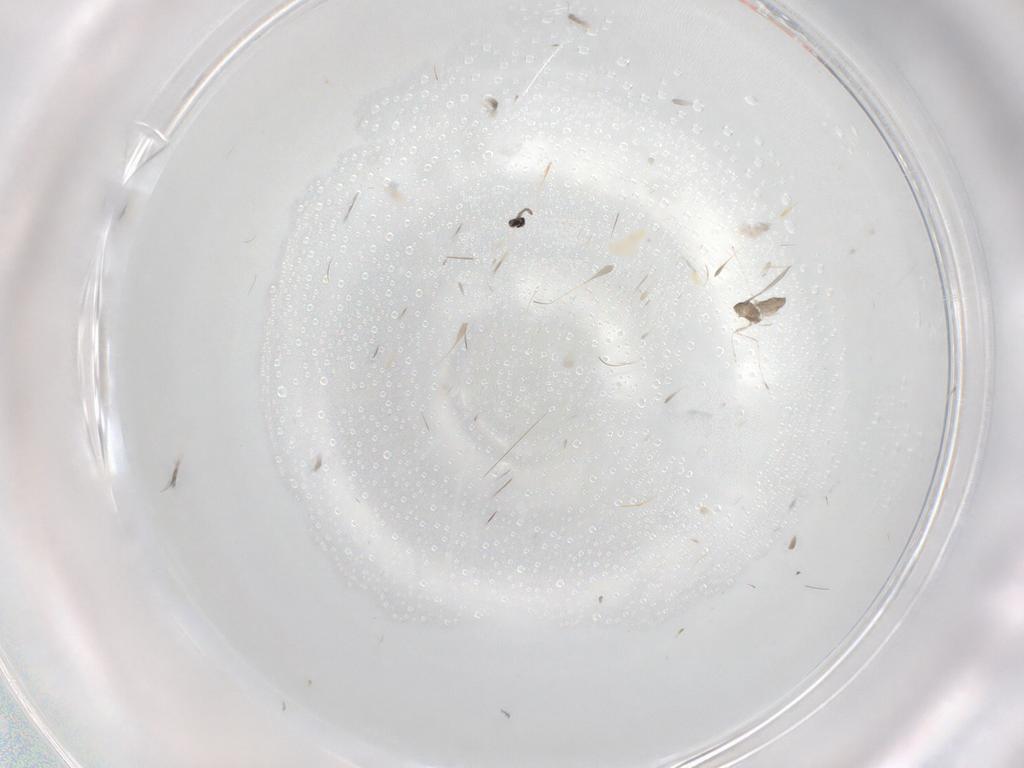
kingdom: Animalia
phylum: Arthropoda
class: Insecta
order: Diptera
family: Cecidomyiidae
